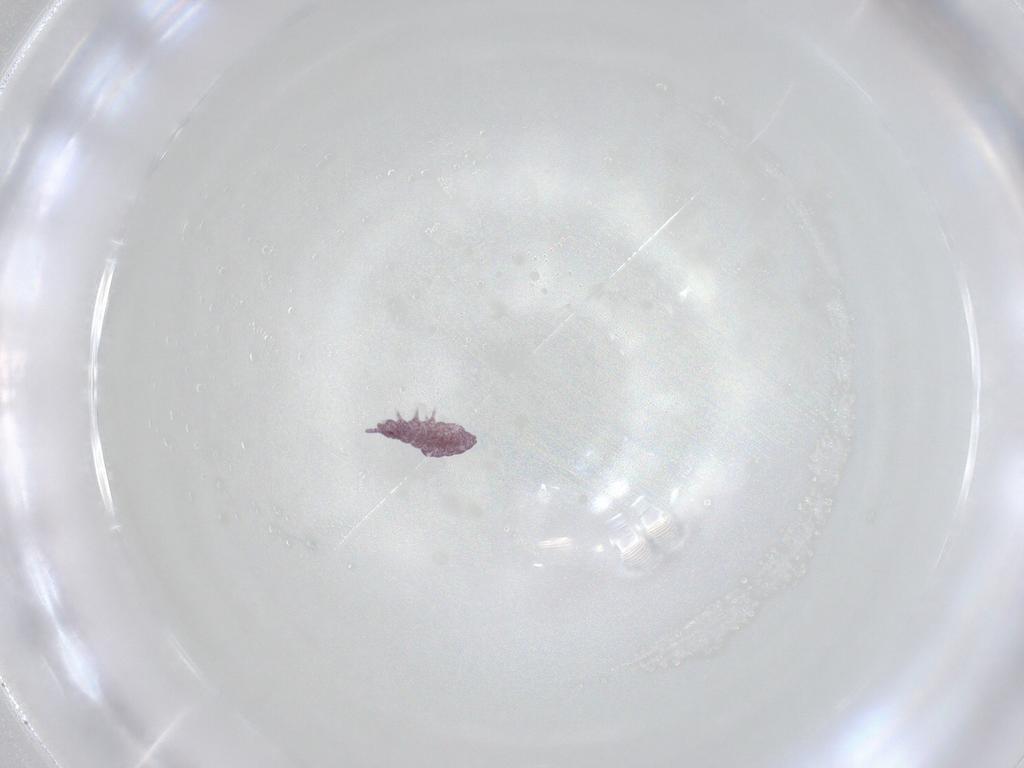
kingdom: Animalia
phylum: Arthropoda
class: Collembola
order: Poduromorpha
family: Brachystomellidae
